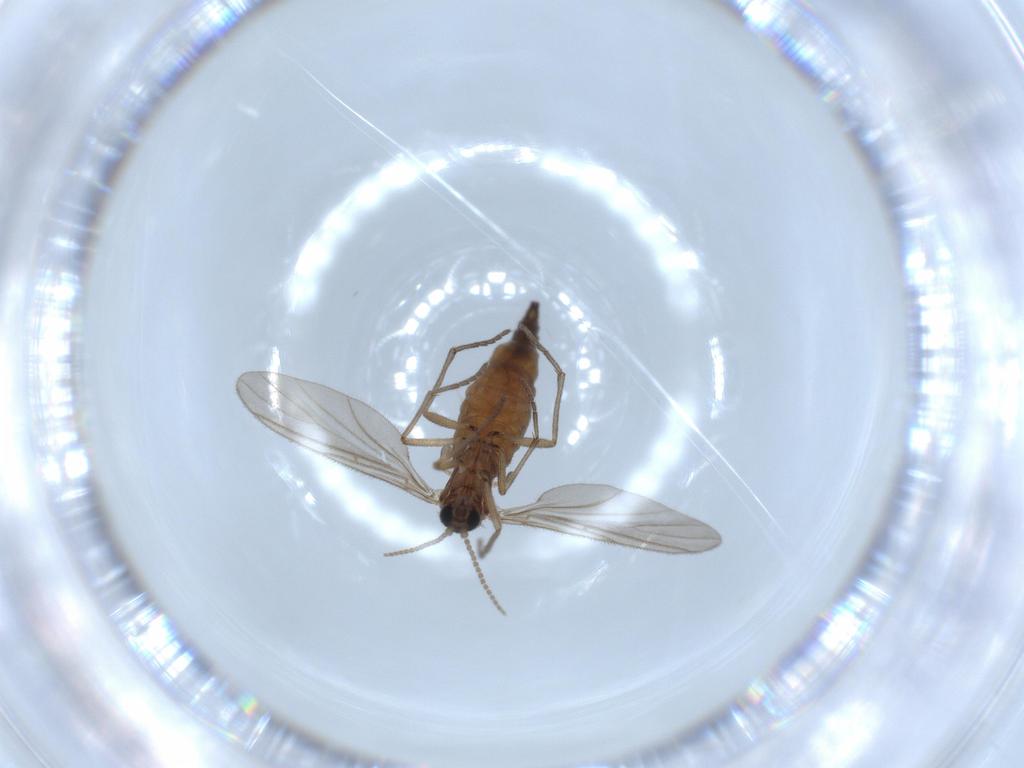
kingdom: Animalia
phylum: Arthropoda
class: Insecta
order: Diptera
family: Sciaridae
